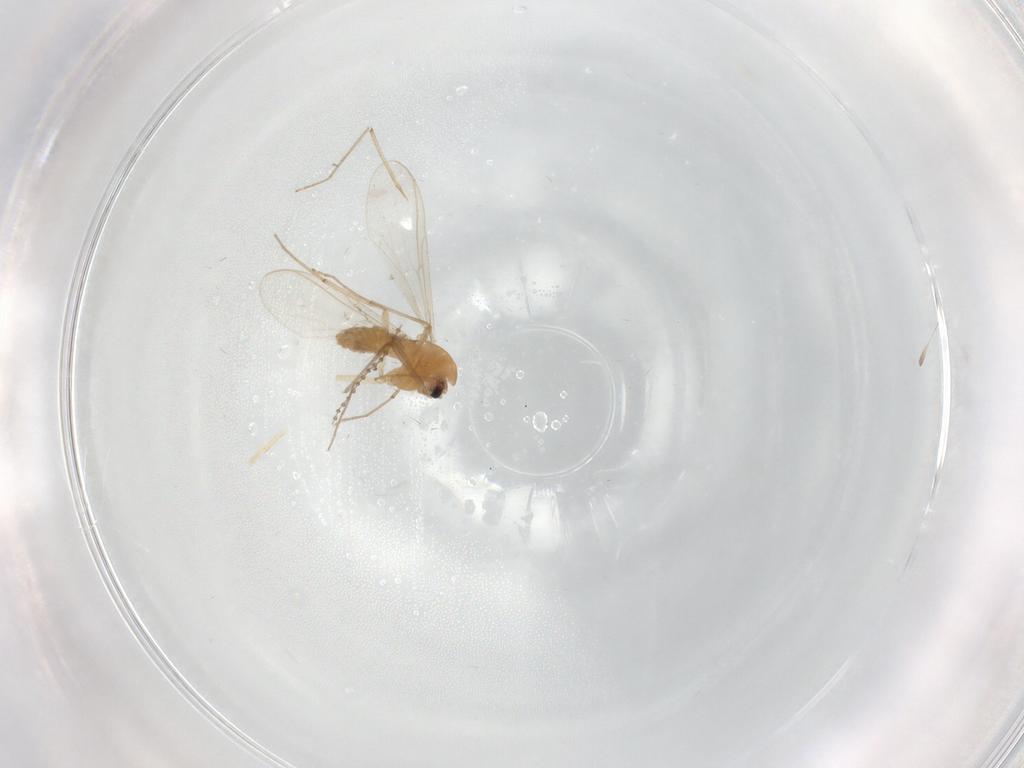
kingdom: Animalia
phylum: Arthropoda
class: Insecta
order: Diptera
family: Chironomidae
